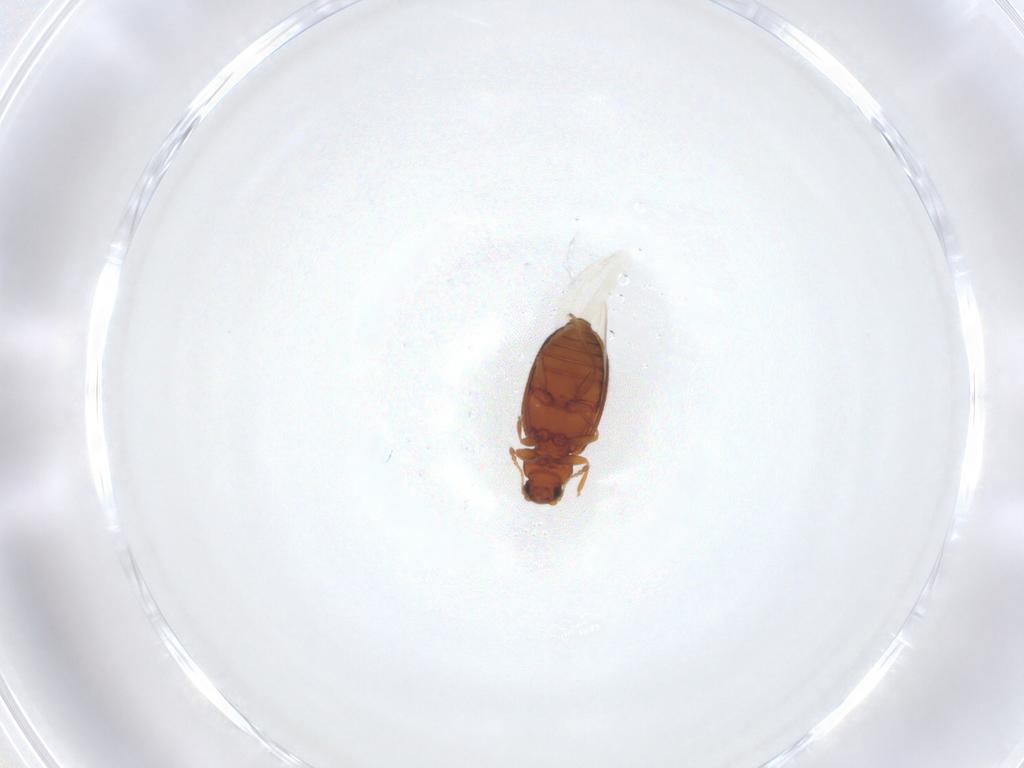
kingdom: Animalia
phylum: Arthropoda
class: Insecta
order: Coleoptera
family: Latridiidae
